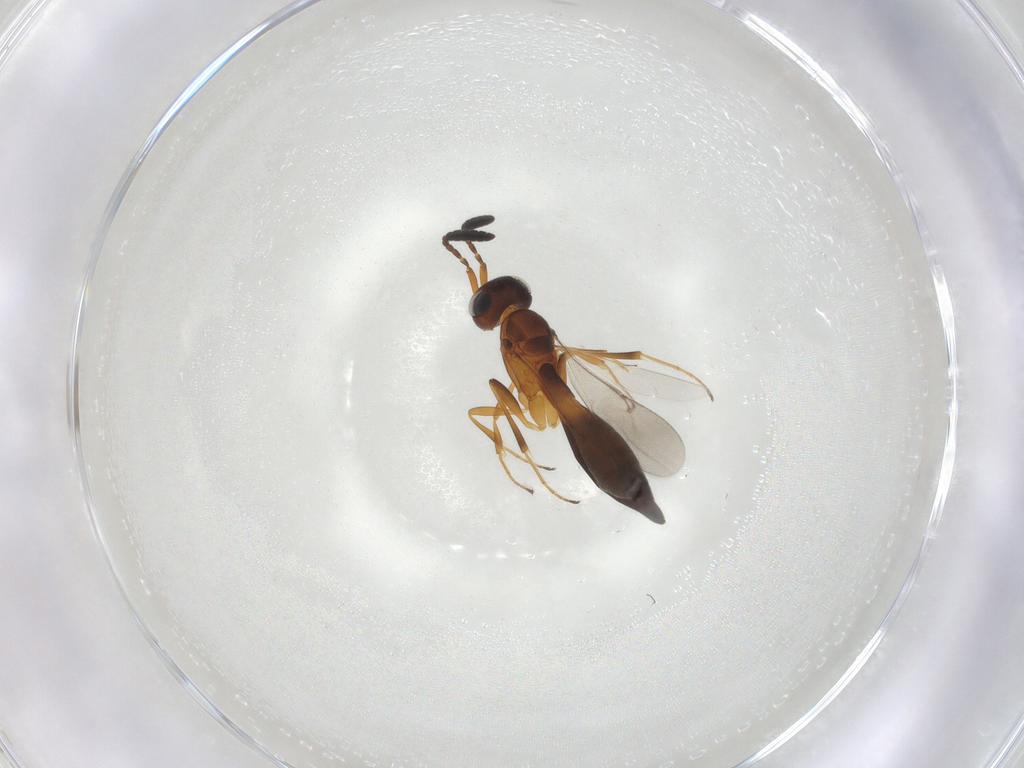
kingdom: Animalia
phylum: Arthropoda
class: Insecta
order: Hymenoptera
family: Scelionidae
